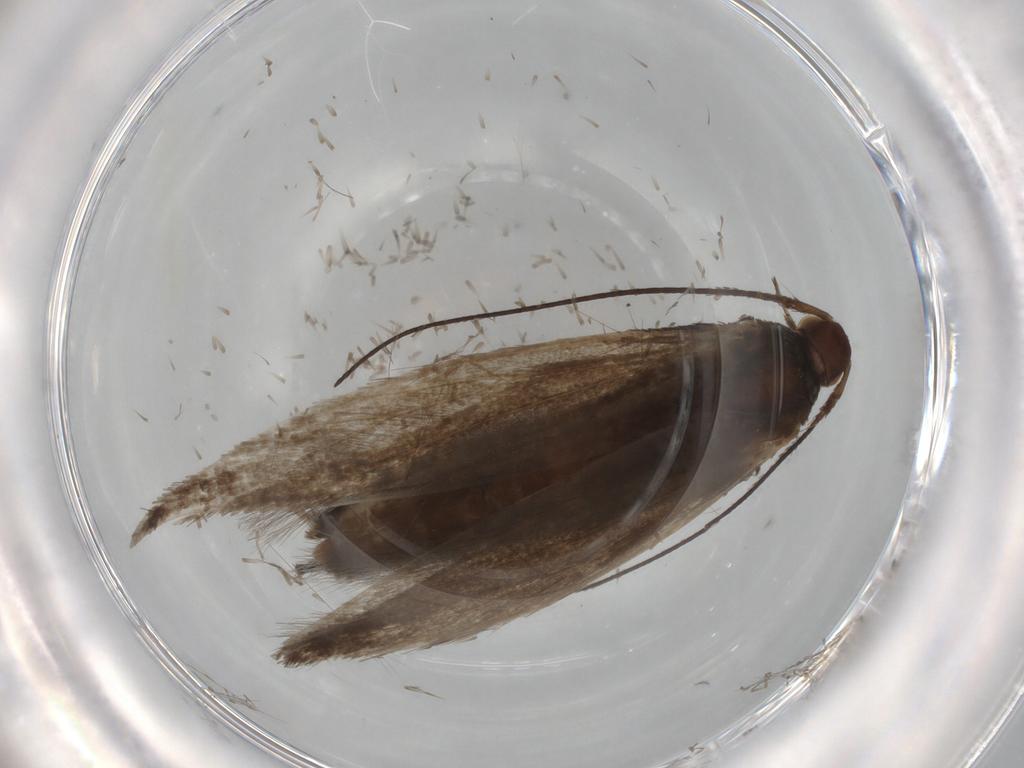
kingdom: Animalia
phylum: Arthropoda
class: Insecta
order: Lepidoptera
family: Coleophoridae
